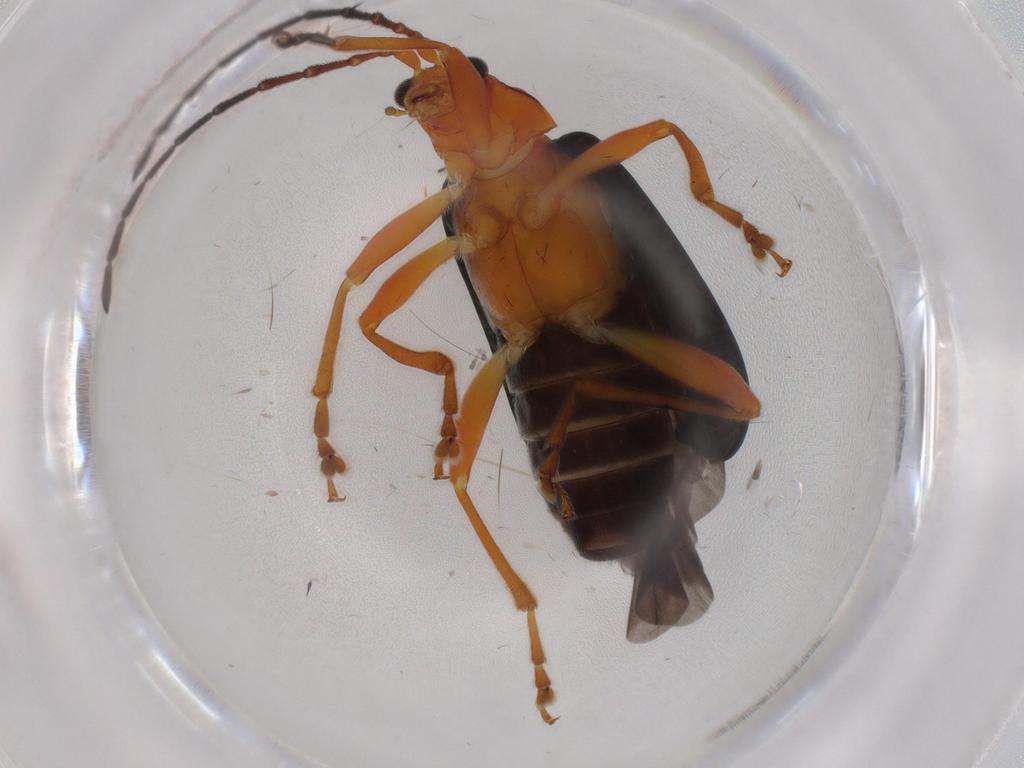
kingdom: Animalia
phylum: Arthropoda
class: Insecta
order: Coleoptera
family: Chrysomelidae
